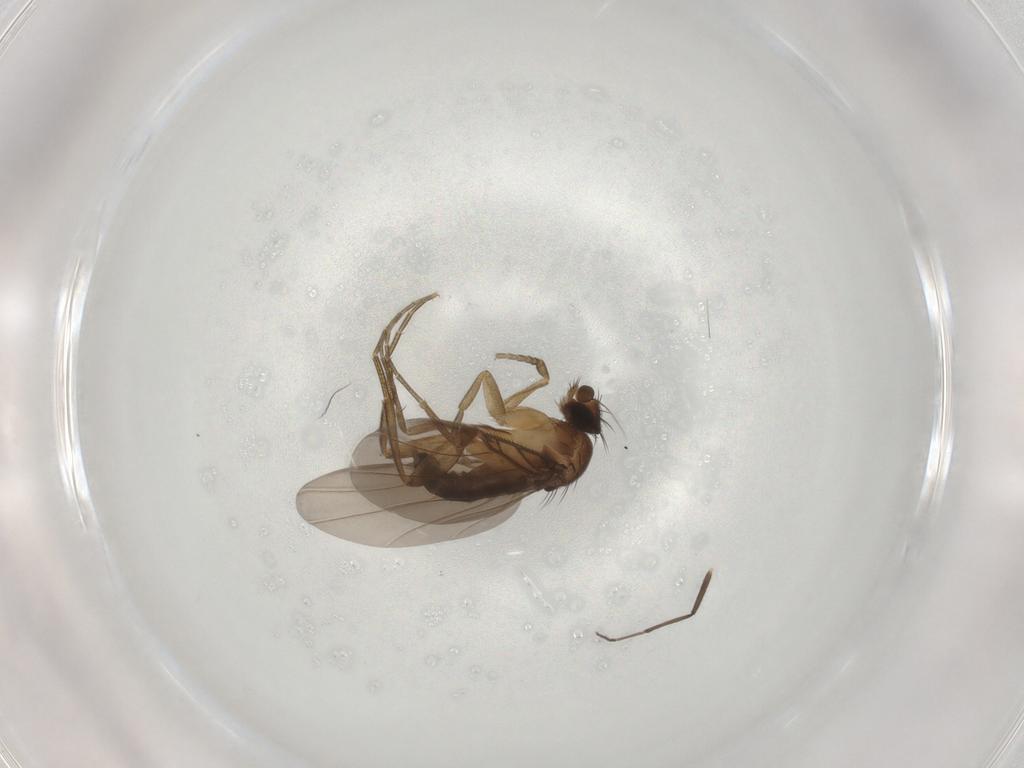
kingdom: Animalia
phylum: Arthropoda
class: Insecta
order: Diptera
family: Phoridae
